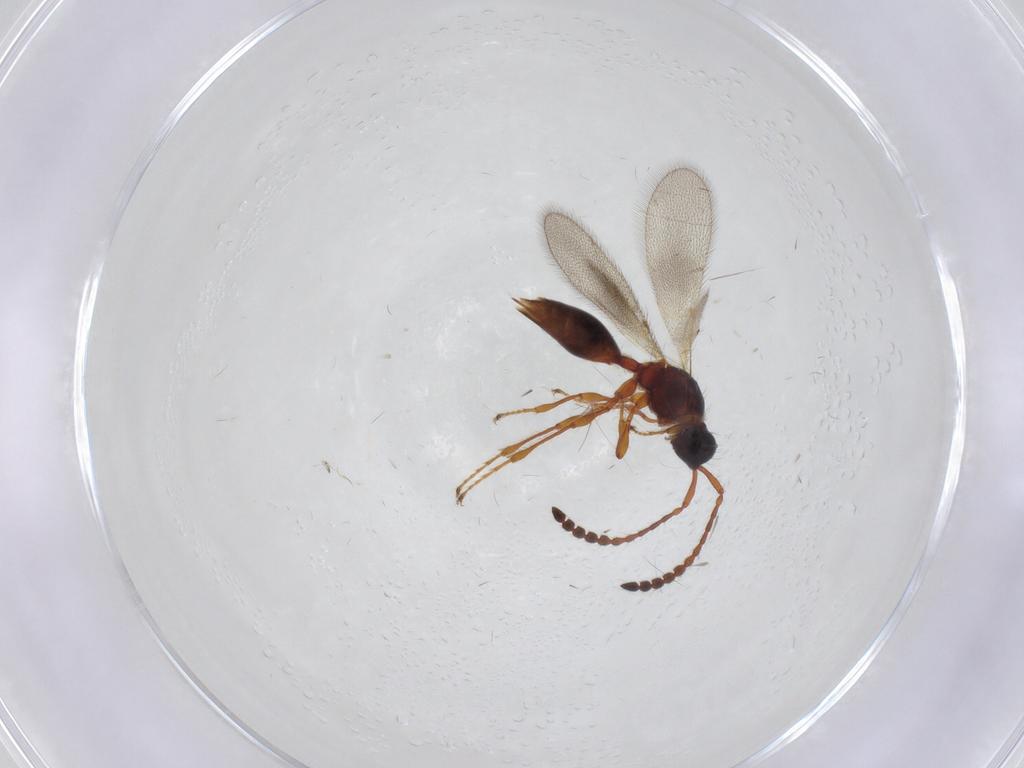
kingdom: Animalia
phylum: Arthropoda
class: Insecta
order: Hymenoptera
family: Diapriidae
